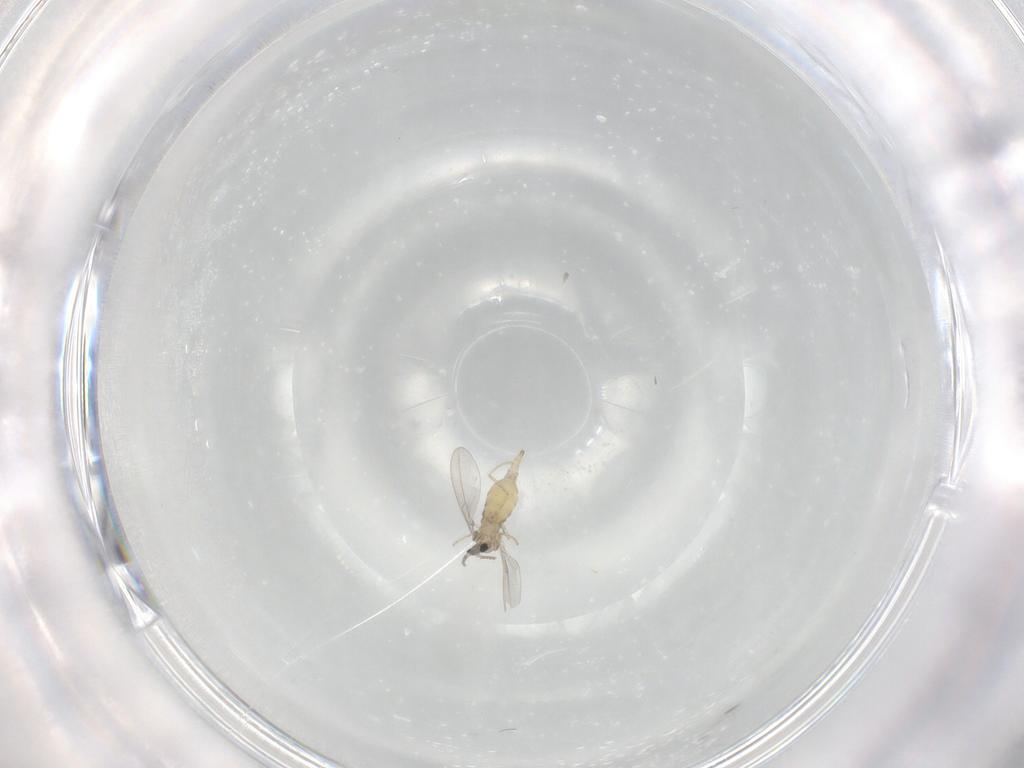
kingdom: Animalia
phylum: Arthropoda
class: Insecta
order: Diptera
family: Cecidomyiidae
